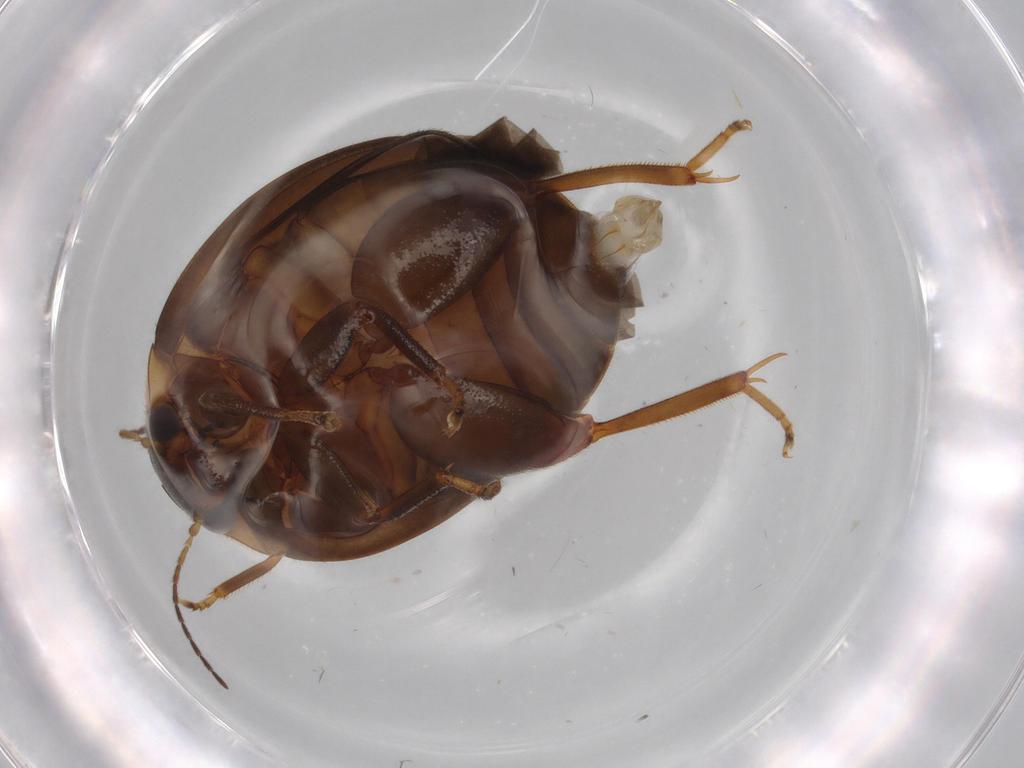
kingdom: Animalia
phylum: Arthropoda
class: Insecta
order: Coleoptera
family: Scirtidae
